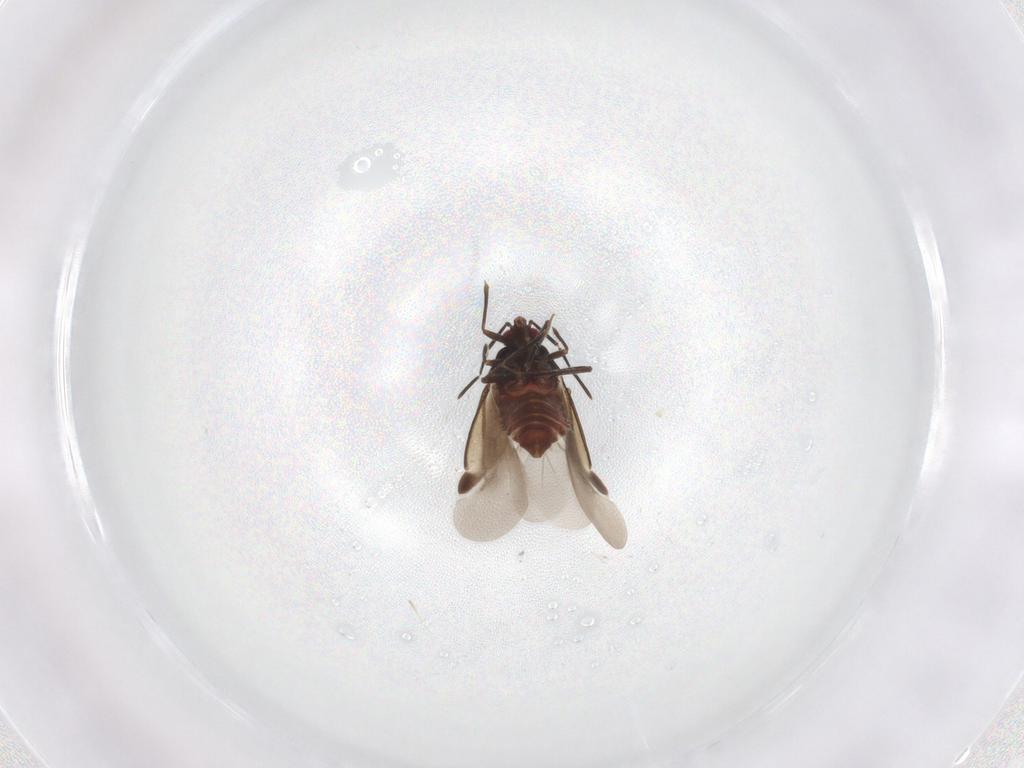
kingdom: Animalia
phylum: Arthropoda
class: Insecta
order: Hemiptera
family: Microphysidae
